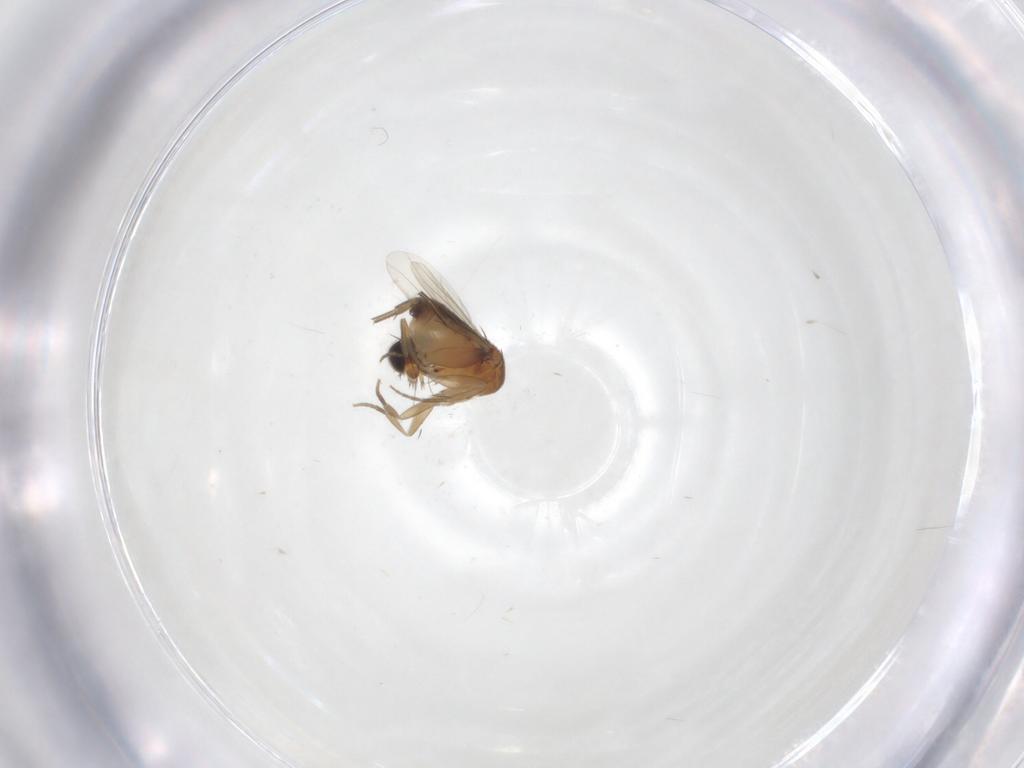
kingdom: Animalia
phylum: Arthropoda
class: Insecta
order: Diptera
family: Phoridae
